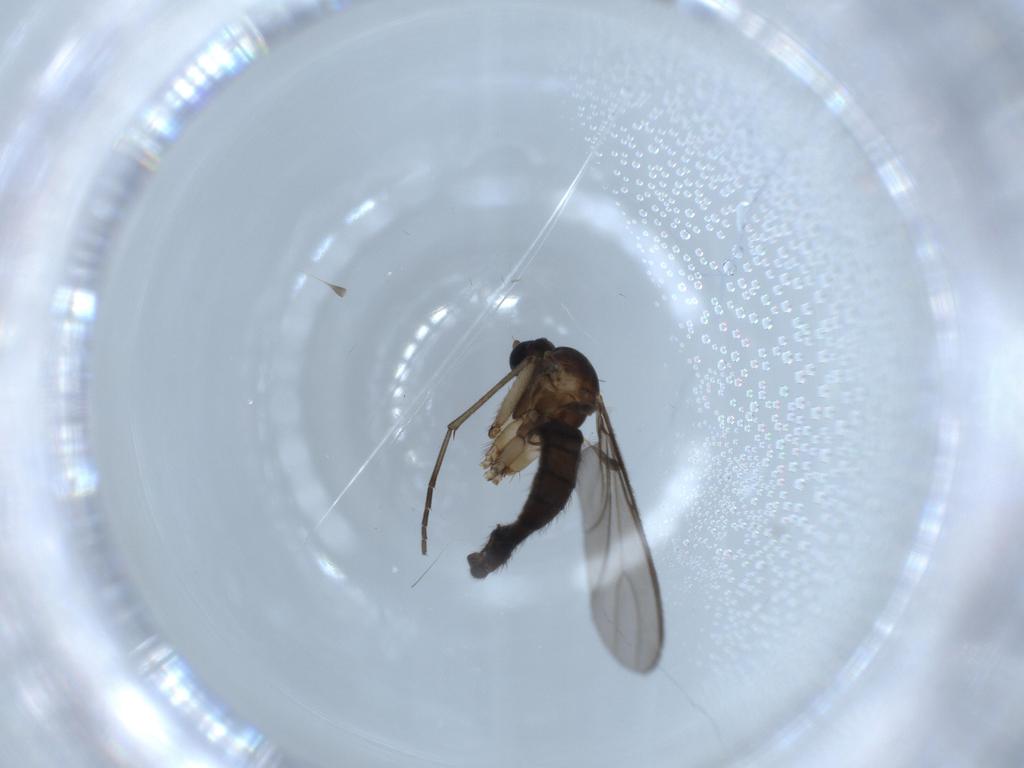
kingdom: Animalia
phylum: Arthropoda
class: Insecta
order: Diptera
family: Sciaridae
